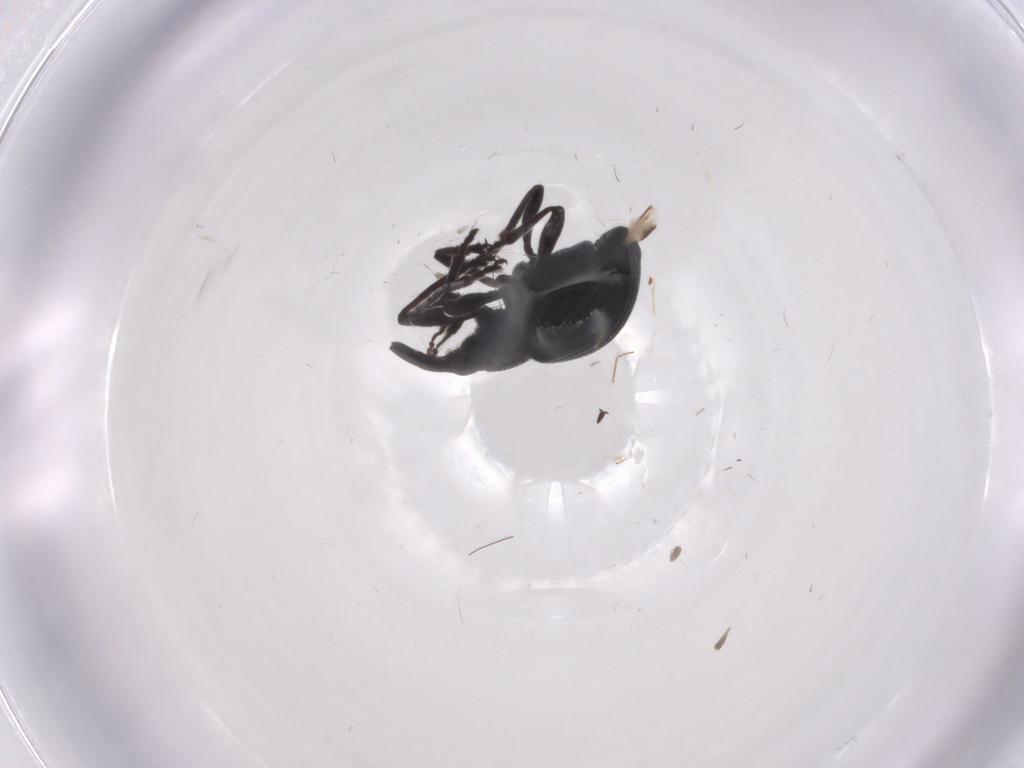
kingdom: Animalia
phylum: Arthropoda
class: Insecta
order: Coleoptera
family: Brentidae
